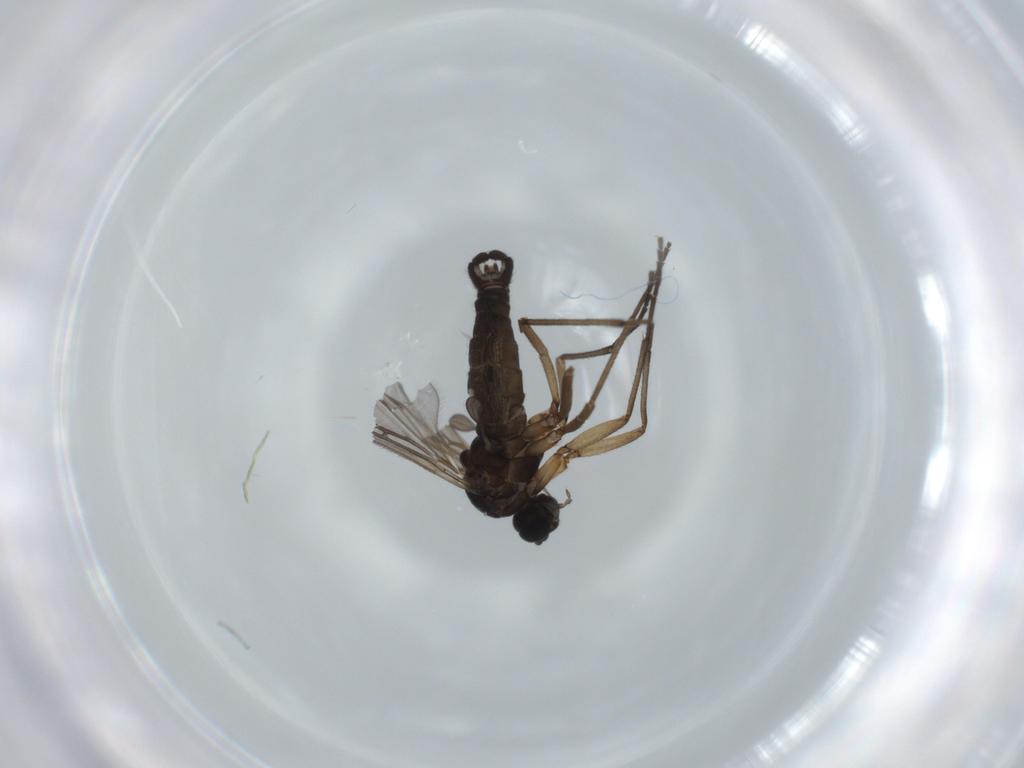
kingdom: Animalia
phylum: Arthropoda
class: Insecta
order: Diptera
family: Sciaridae
